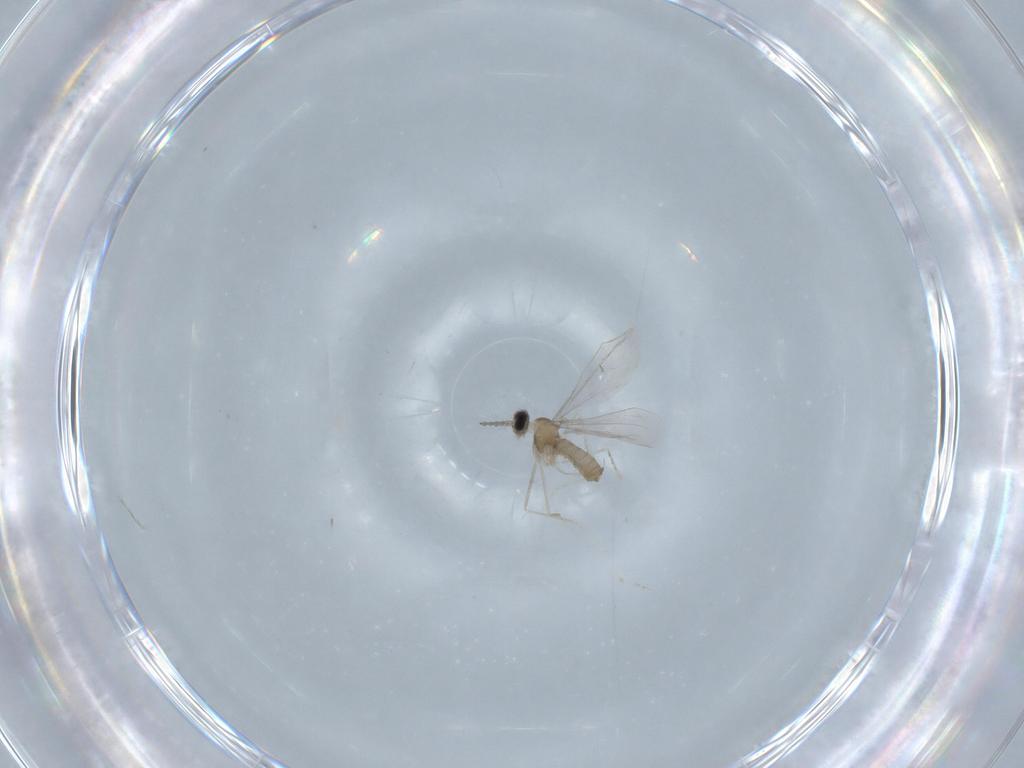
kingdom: Animalia
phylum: Arthropoda
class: Insecta
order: Diptera
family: Cecidomyiidae
